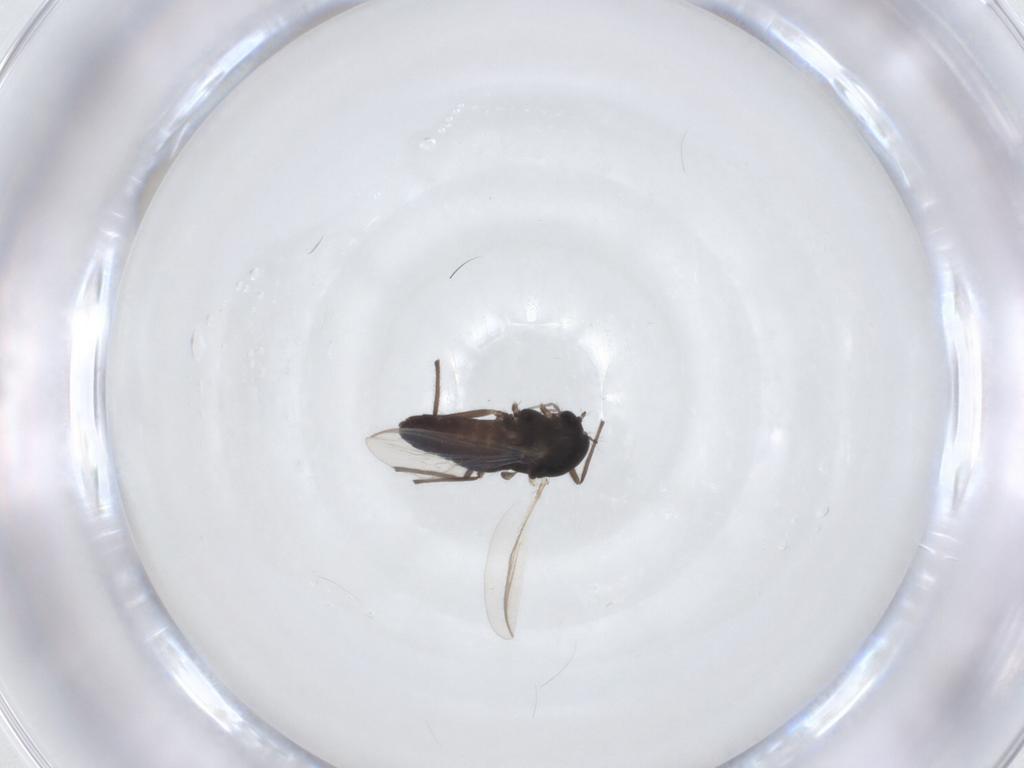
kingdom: Animalia
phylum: Arthropoda
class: Insecta
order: Diptera
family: Chironomidae
